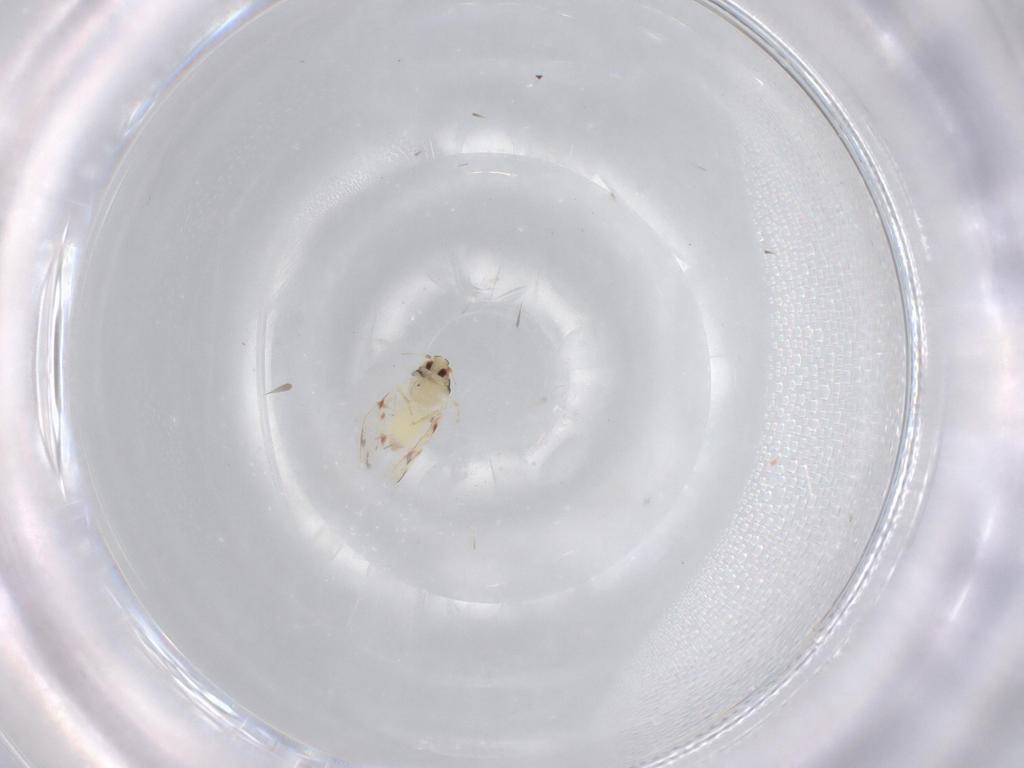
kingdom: Animalia
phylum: Arthropoda
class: Insecta
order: Hemiptera
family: Aleyrodidae
